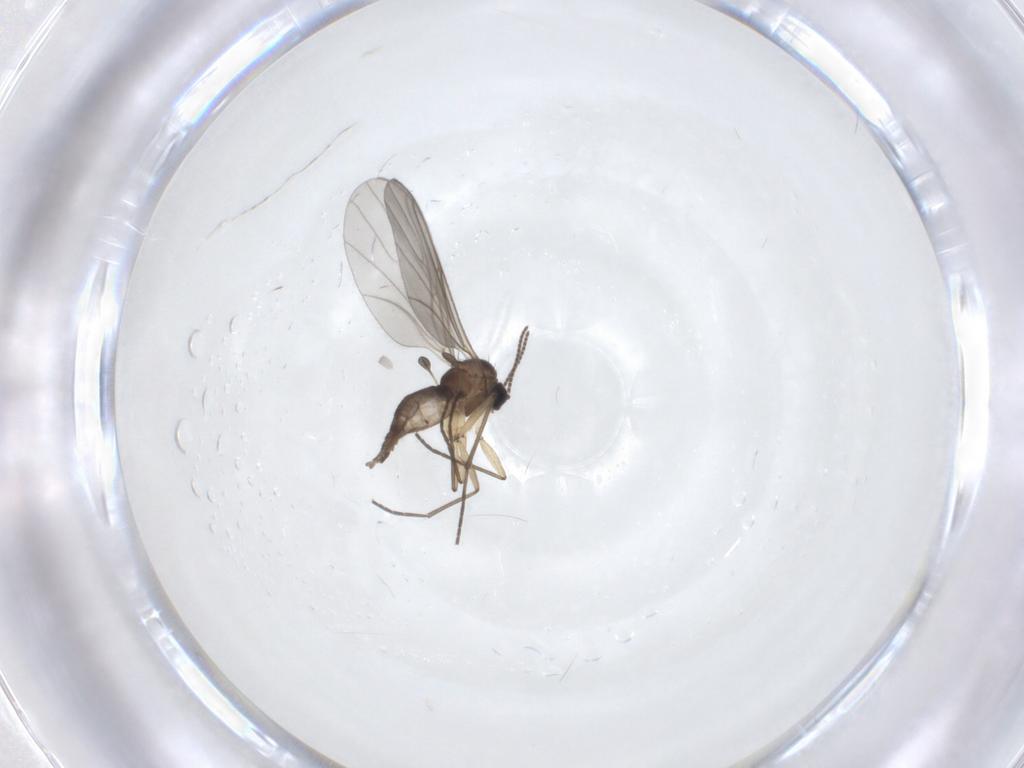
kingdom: Animalia
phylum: Arthropoda
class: Insecta
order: Diptera
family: Sciaridae
